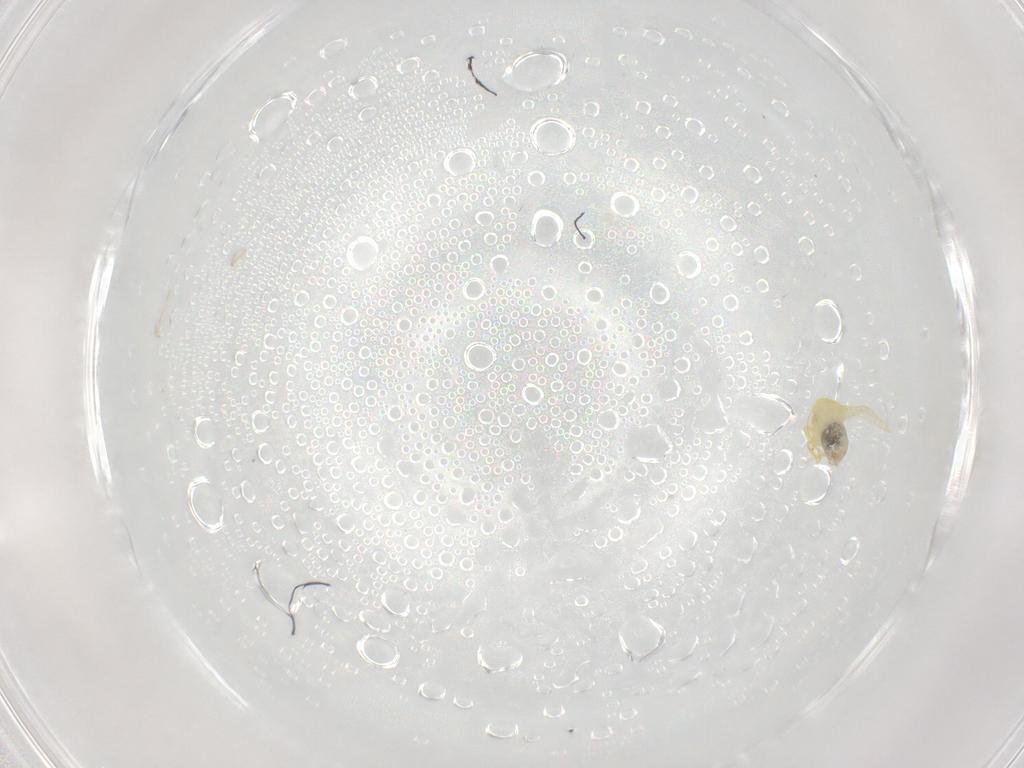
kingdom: Animalia
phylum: Arthropoda
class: Insecta
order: Hemiptera
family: Aleyrodidae
